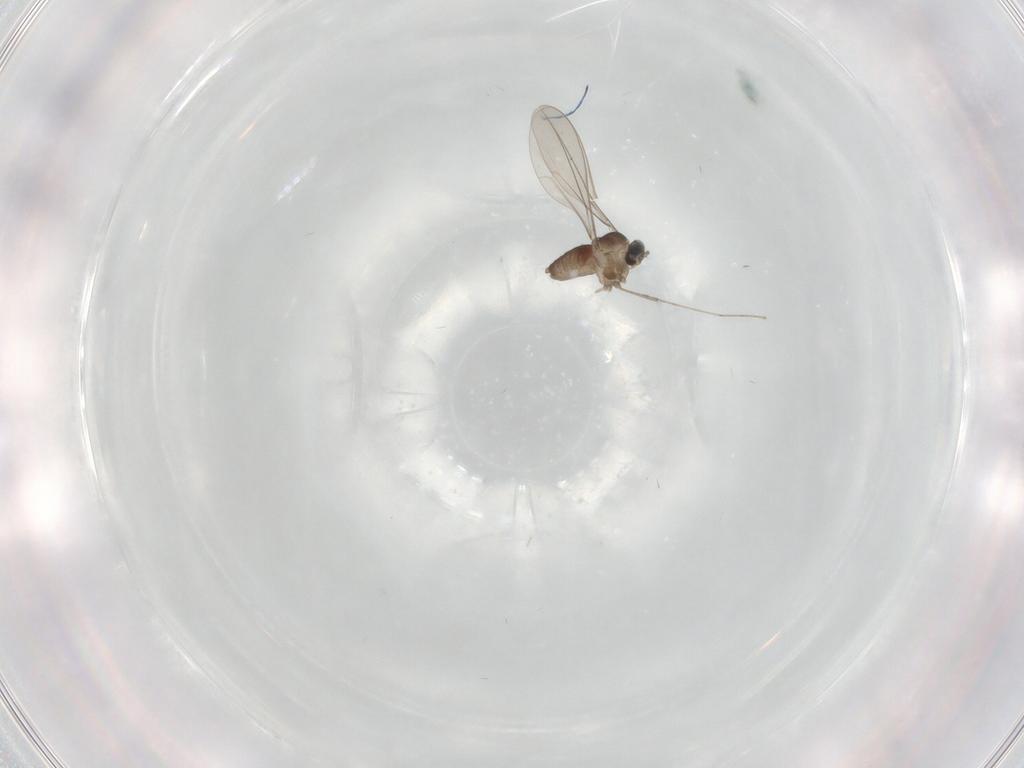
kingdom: Animalia
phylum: Arthropoda
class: Insecta
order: Diptera
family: Cecidomyiidae
